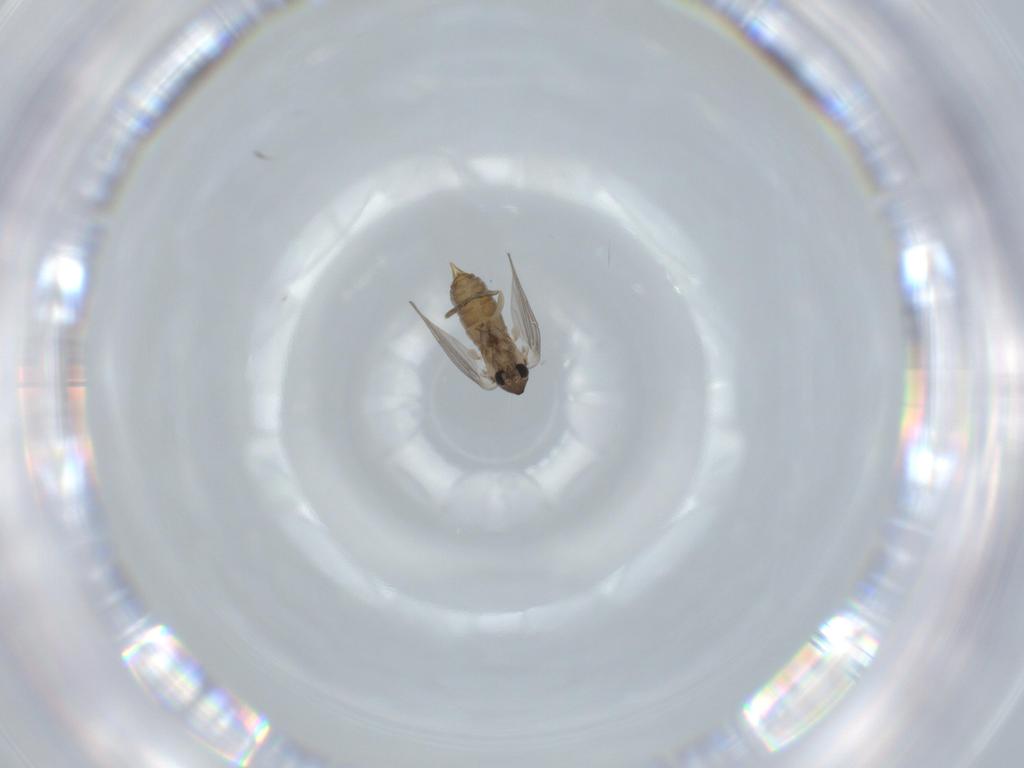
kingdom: Animalia
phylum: Arthropoda
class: Insecta
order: Diptera
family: Psychodidae
